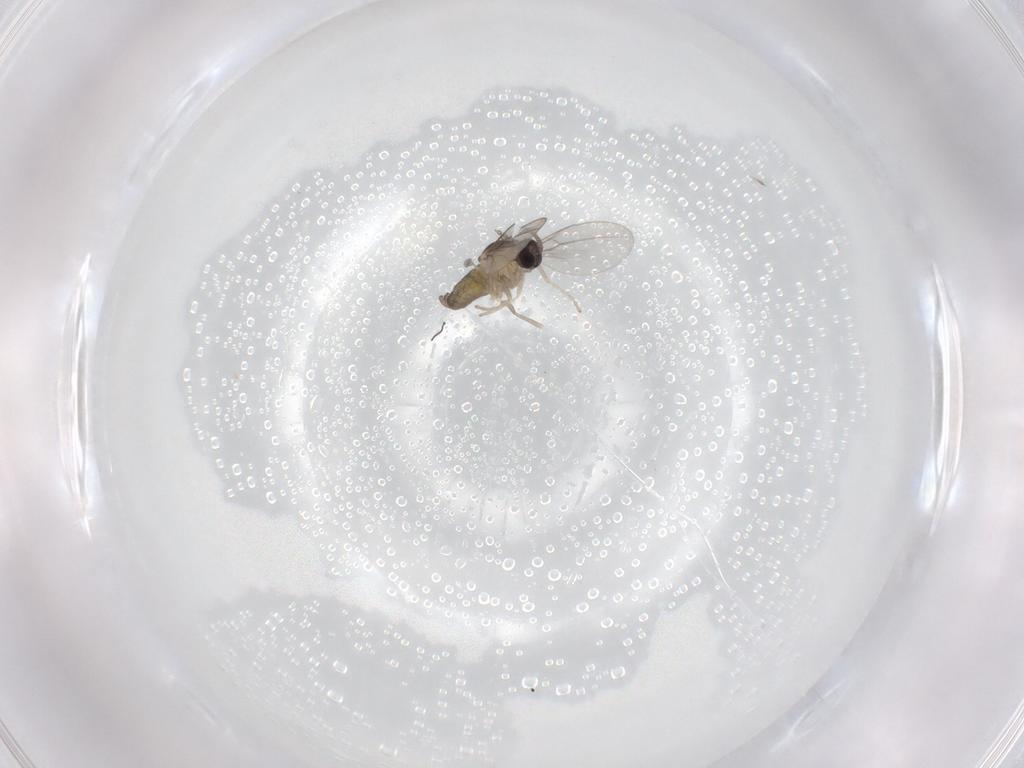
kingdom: Animalia
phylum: Arthropoda
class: Insecta
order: Diptera
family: Cecidomyiidae
